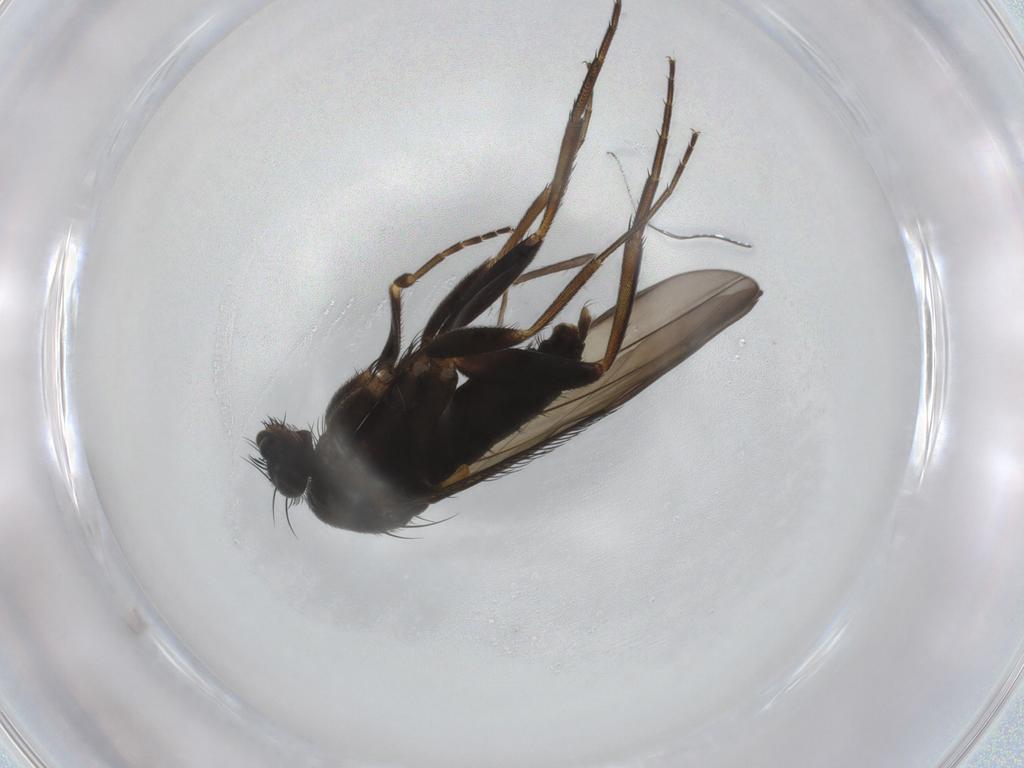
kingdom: Animalia
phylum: Arthropoda
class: Insecta
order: Diptera
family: Phoridae
